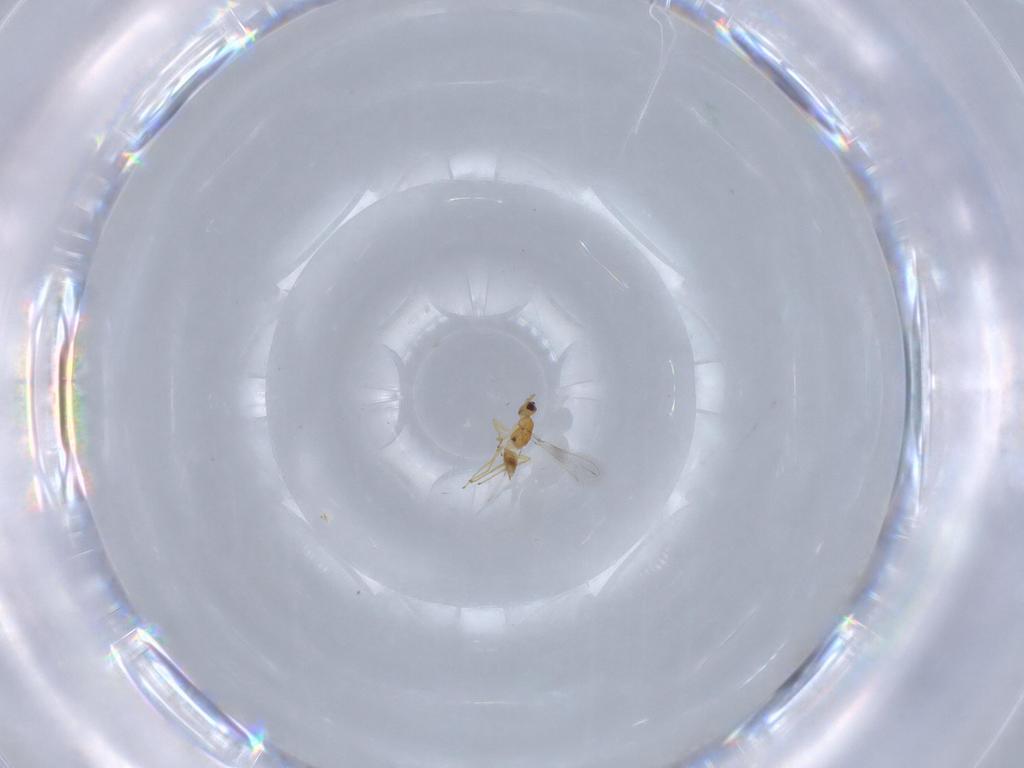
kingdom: Animalia
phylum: Arthropoda
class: Insecta
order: Hymenoptera
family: Mymaridae
